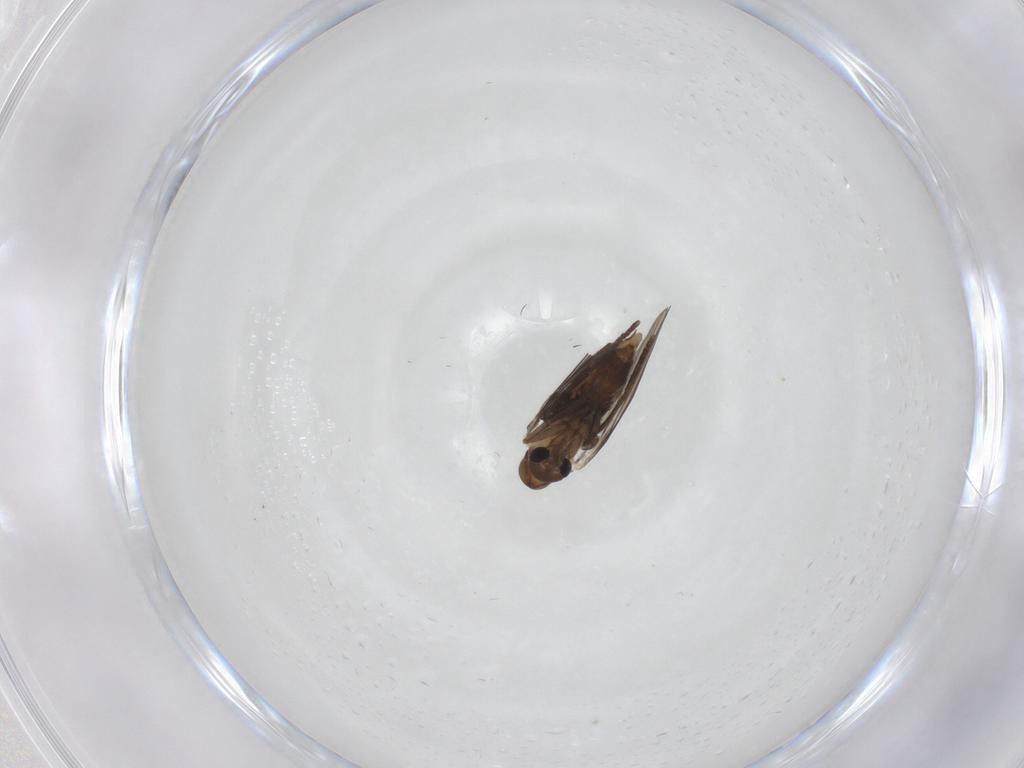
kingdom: Animalia
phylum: Arthropoda
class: Insecta
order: Diptera
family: Psychodidae
